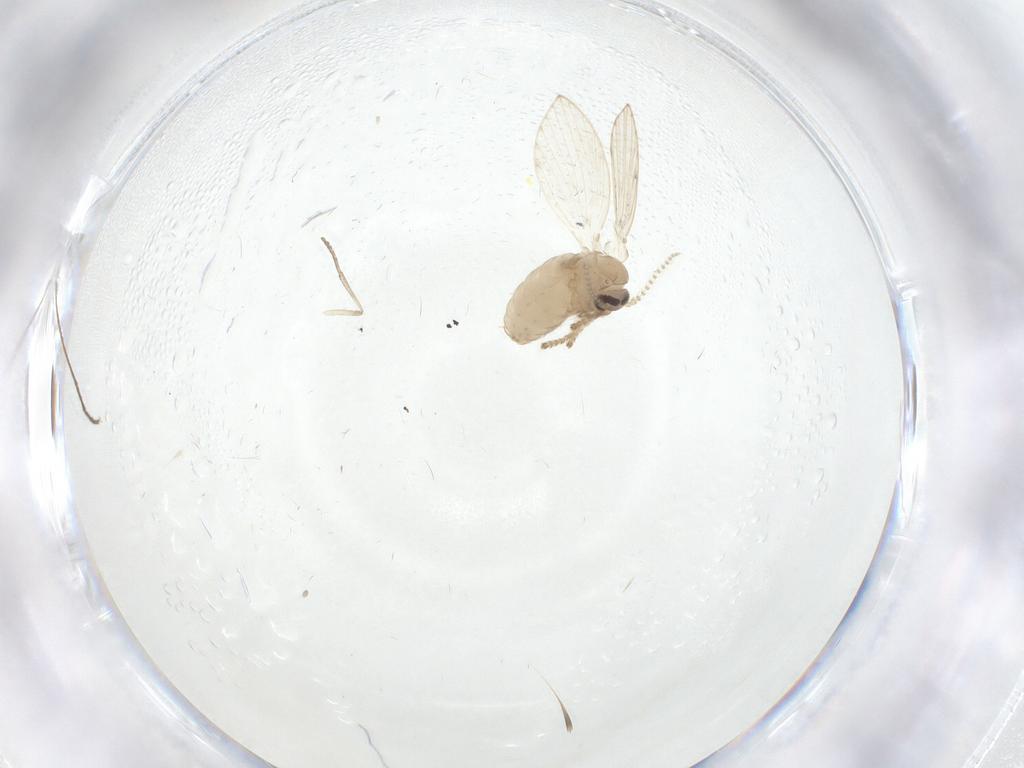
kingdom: Animalia
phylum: Arthropoda
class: Insecta
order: Diptera
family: Psychodidae
